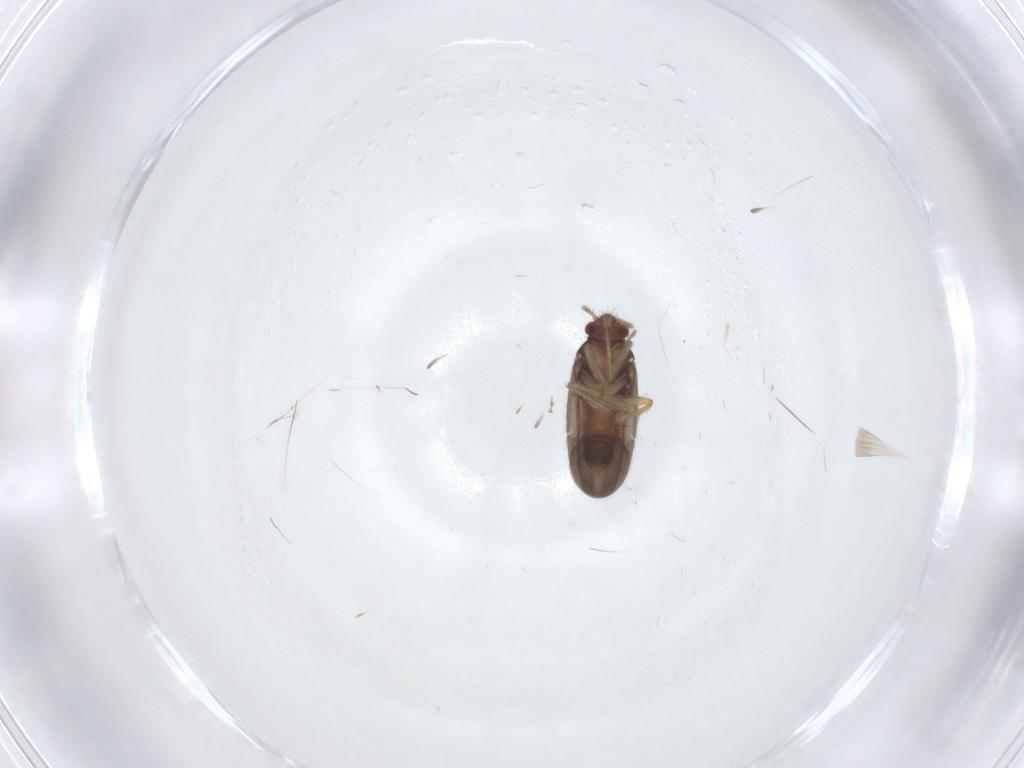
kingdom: Animalia
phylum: Arthropoda
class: Insecta
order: Hemiptera
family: Ceratocombidae
